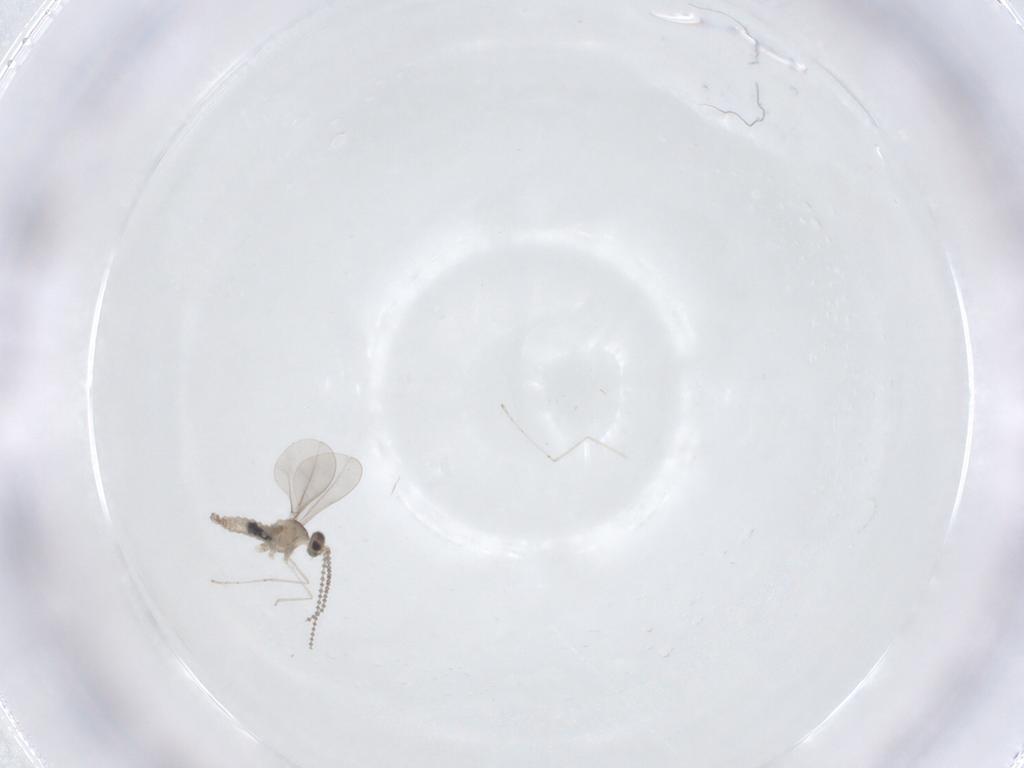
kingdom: Animalia
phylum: Arthropoda
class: Insecta
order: Diptera
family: Cecidomyiidae
